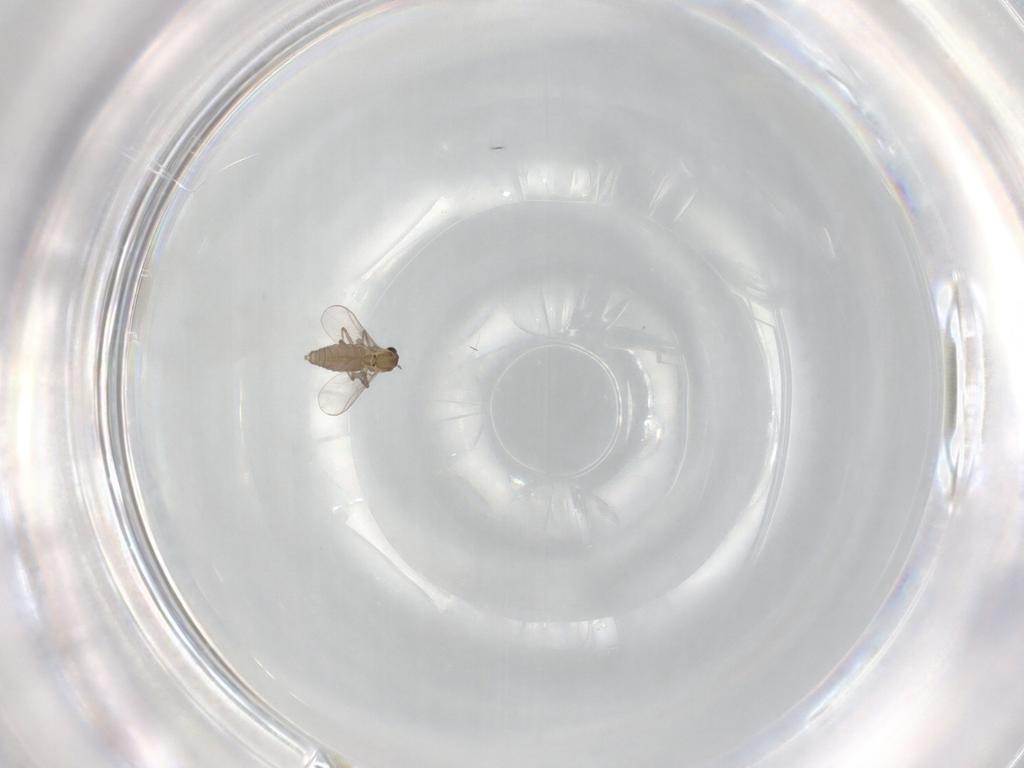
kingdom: Animalia
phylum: Arthropoda
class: Insecta
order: Diptera
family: Chironomidae
